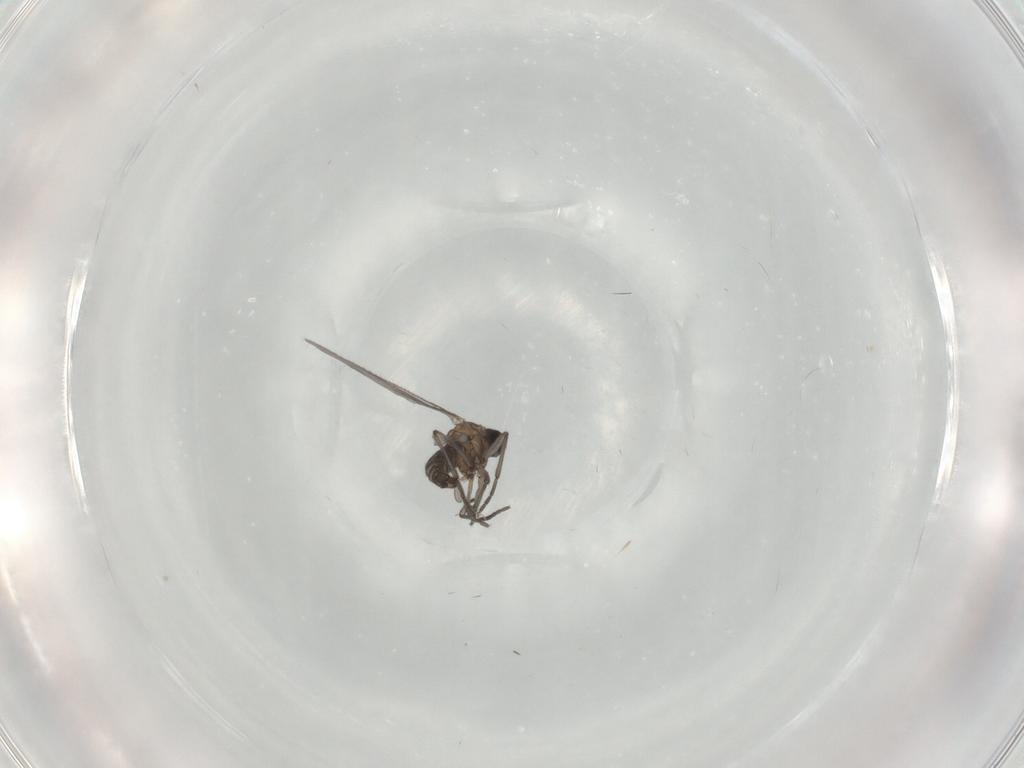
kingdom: Animalia
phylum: Arthropoda
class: Insecta
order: Diptera
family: Sciaridae
